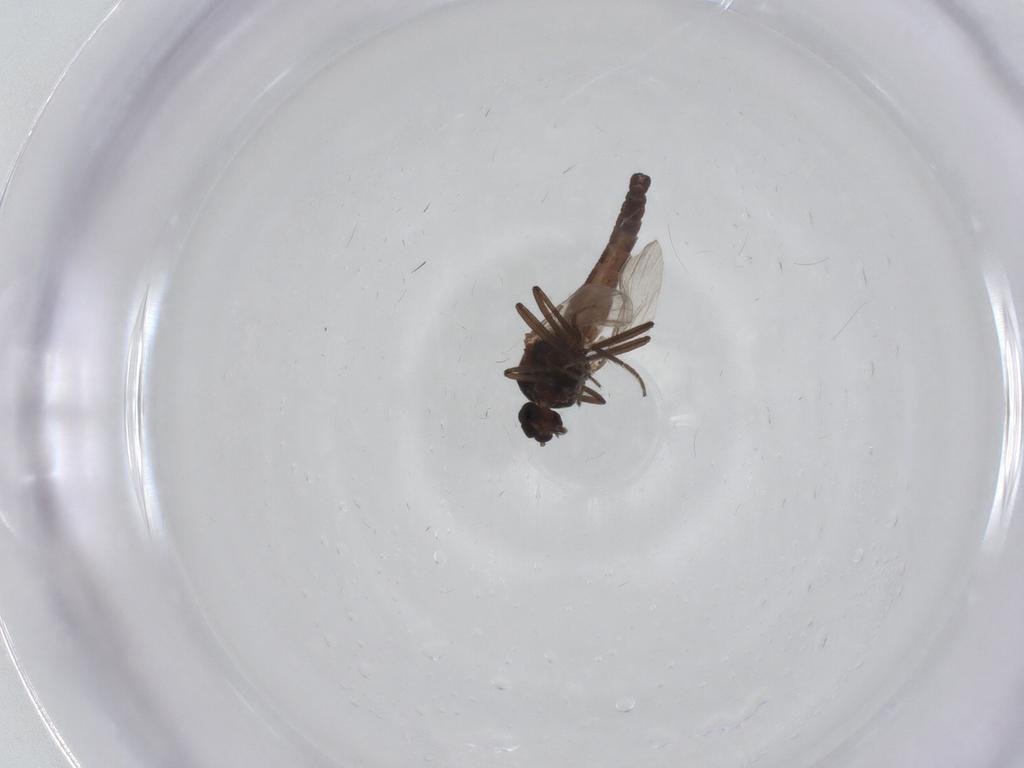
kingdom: Animalia
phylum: Arthropoda
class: Insecta
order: Diptera
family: Ceratopogonidae
